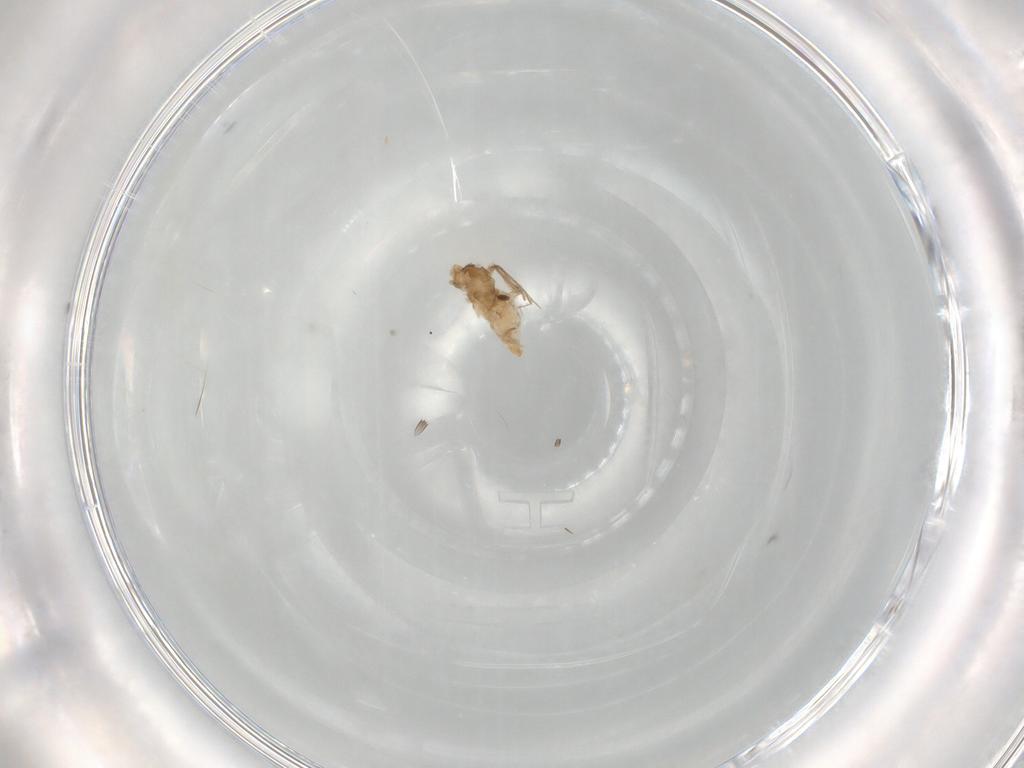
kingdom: Animalia
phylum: Arthropoda
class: Insecta
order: Diptera
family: Cecidomyiidae
